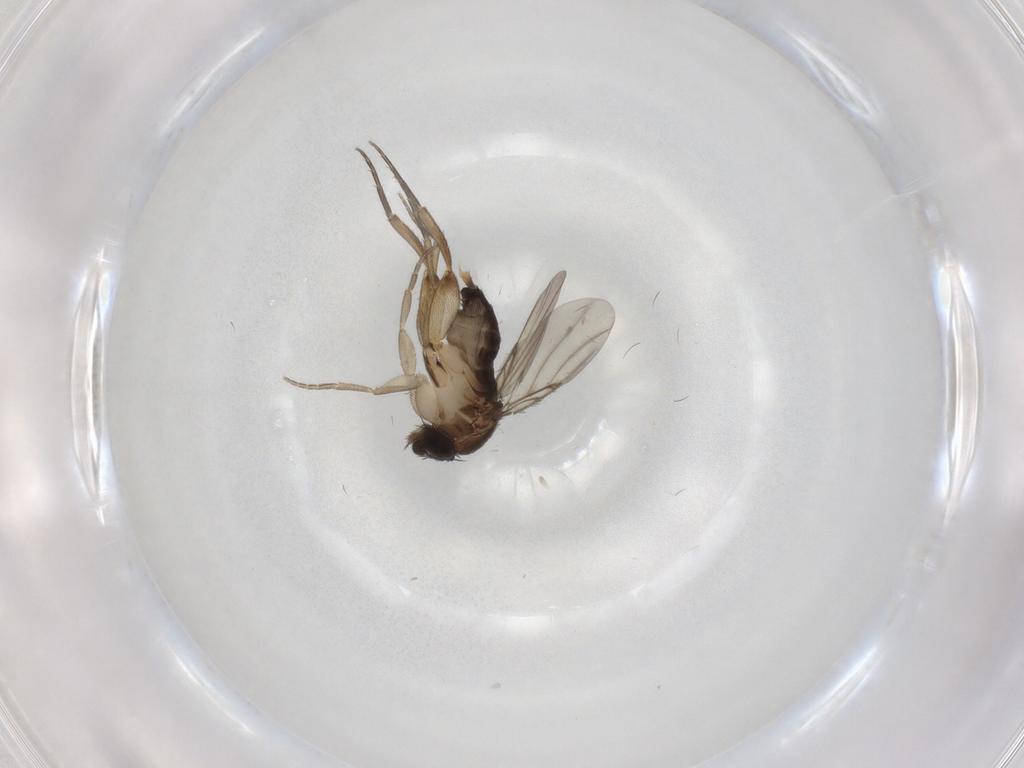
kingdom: Animalia
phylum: Arthropoda
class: Insecta
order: Diptera
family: Phoridae
